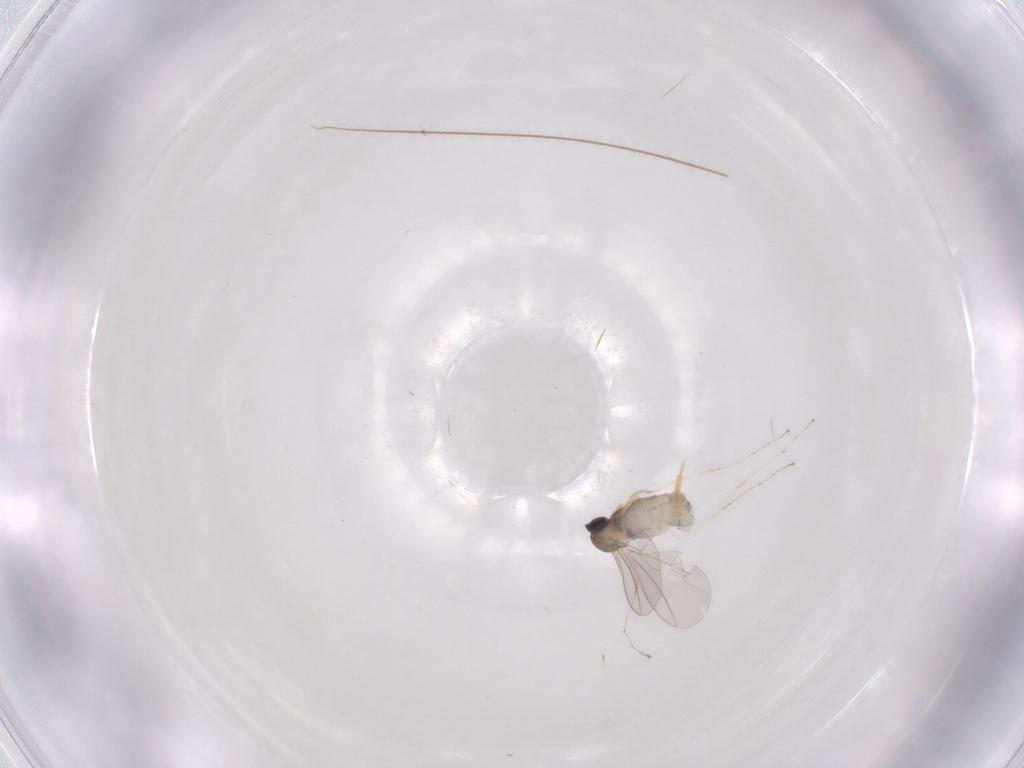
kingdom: Animalia
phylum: Arthropoda
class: Insecta
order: Diptera
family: Cecidomyiidae
